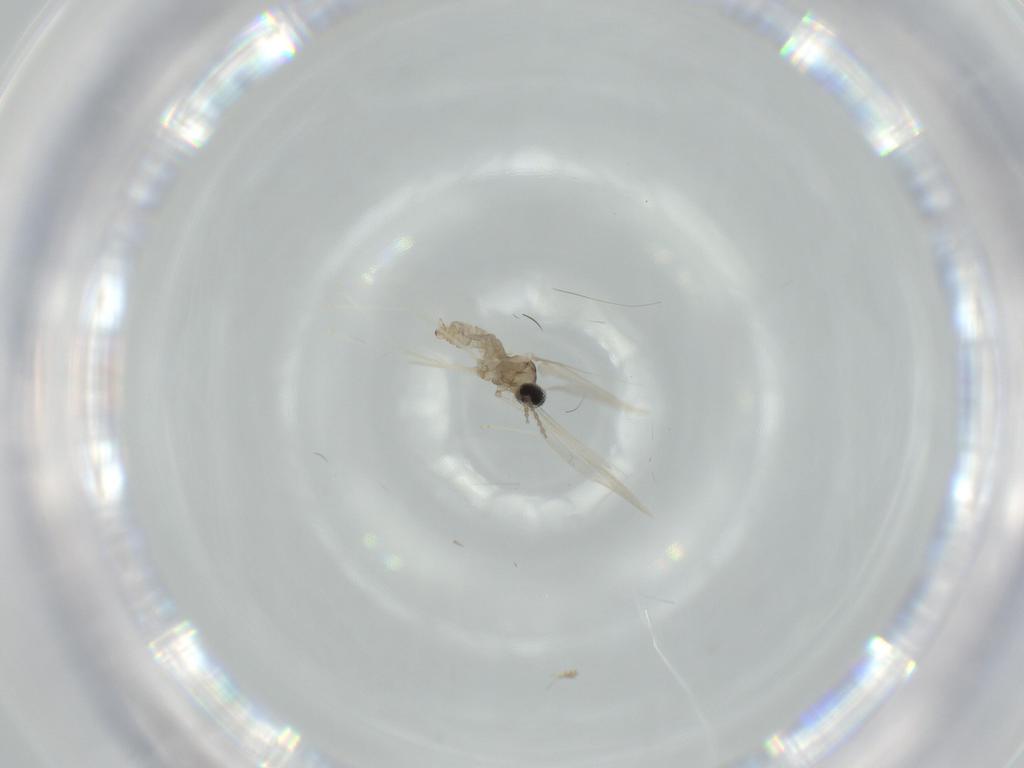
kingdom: Animalia
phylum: Arthropoda
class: Insecta
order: Diptera
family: Cecidomyiidae
